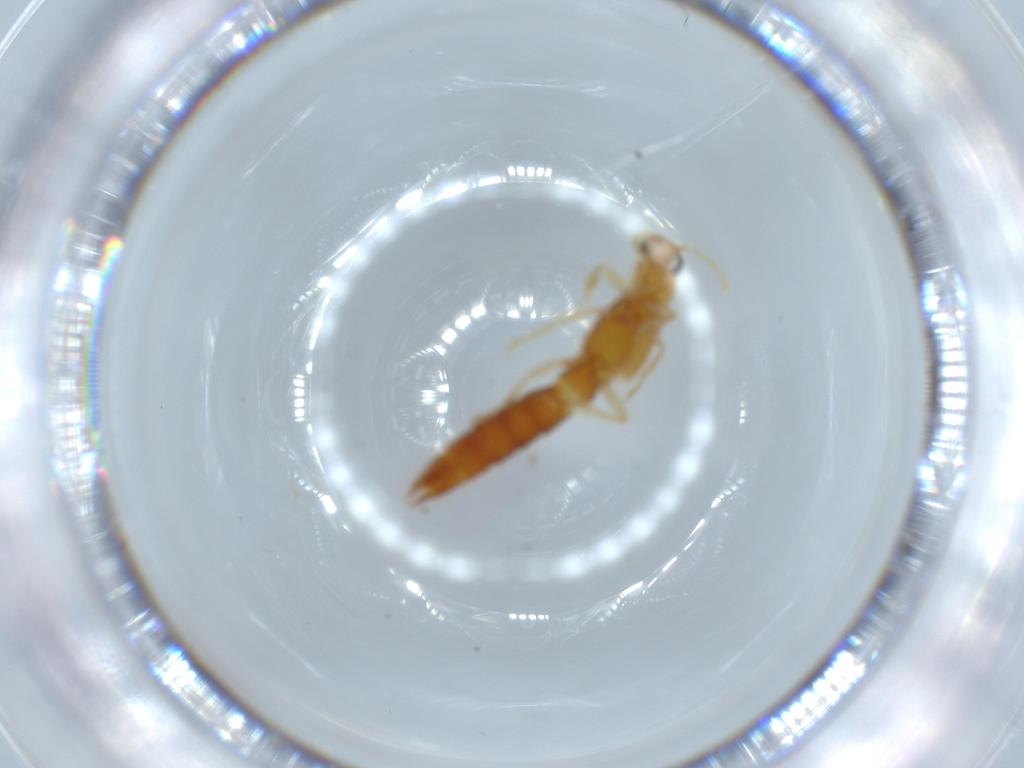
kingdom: Animalia
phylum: Arthropoda
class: Insecta
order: Coleoptera
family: Staphylinidae
